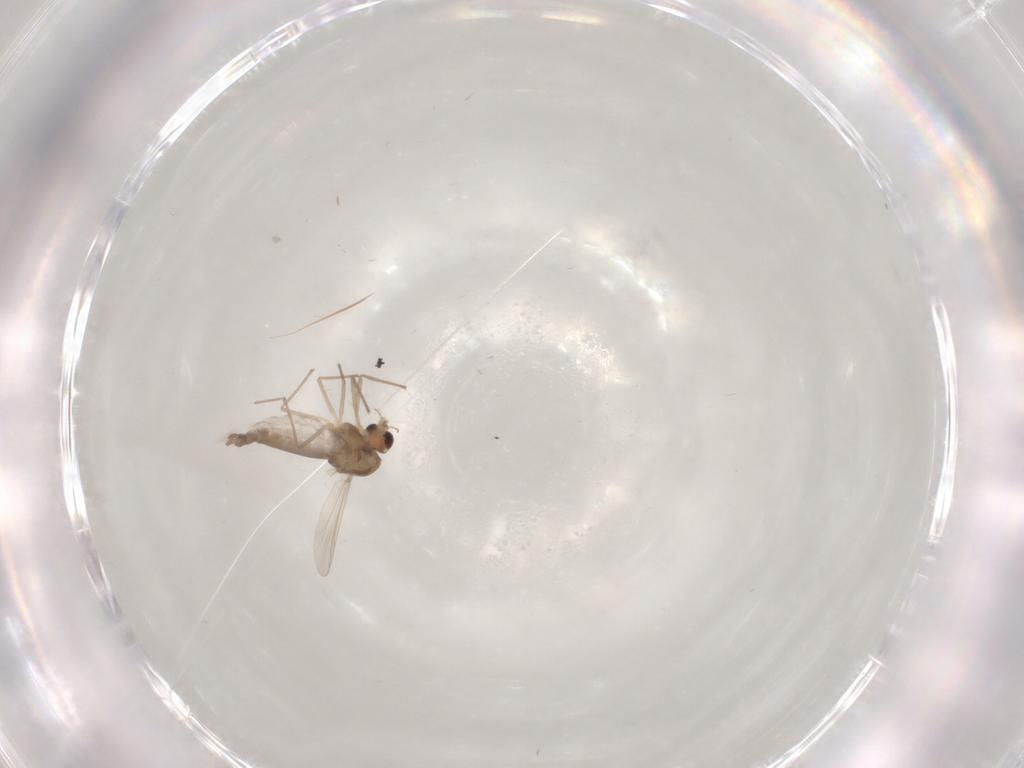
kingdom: Animalia
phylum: Arthropoda
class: Insecta
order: Diptera
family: Chironomidae
